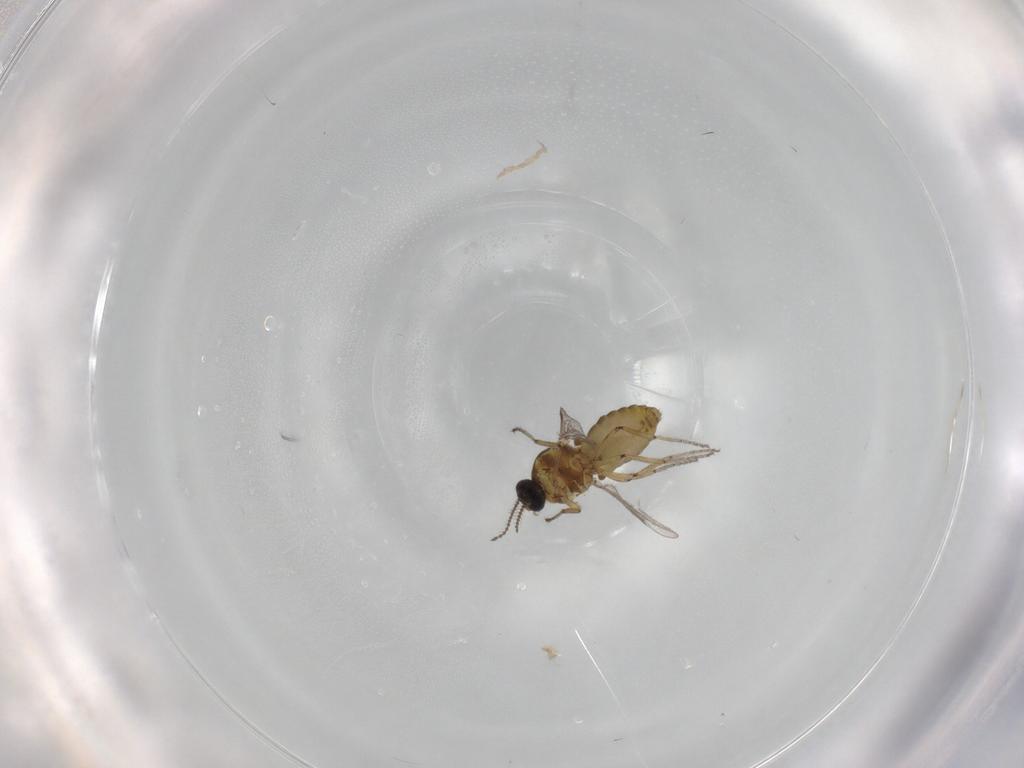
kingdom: Animalia
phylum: Arthropoda
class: Insecta
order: Diptera
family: Ceratopogonidae
